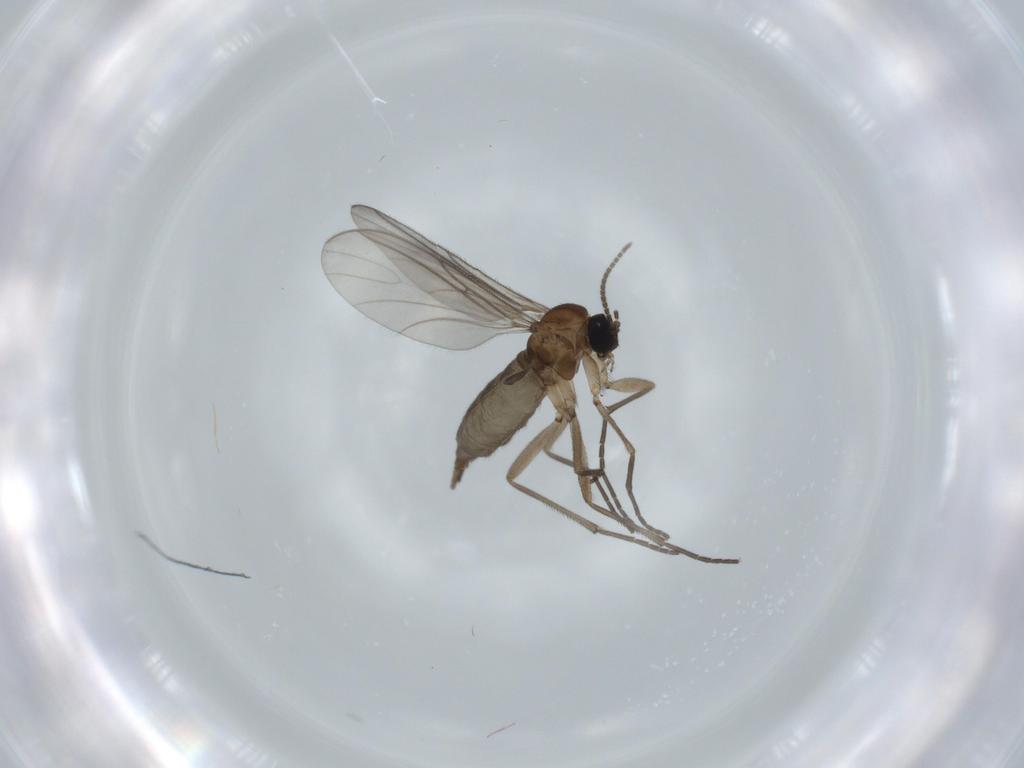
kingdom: Animalia
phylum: Arthropoda
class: Insecta
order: Diptera
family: Sciaridae
